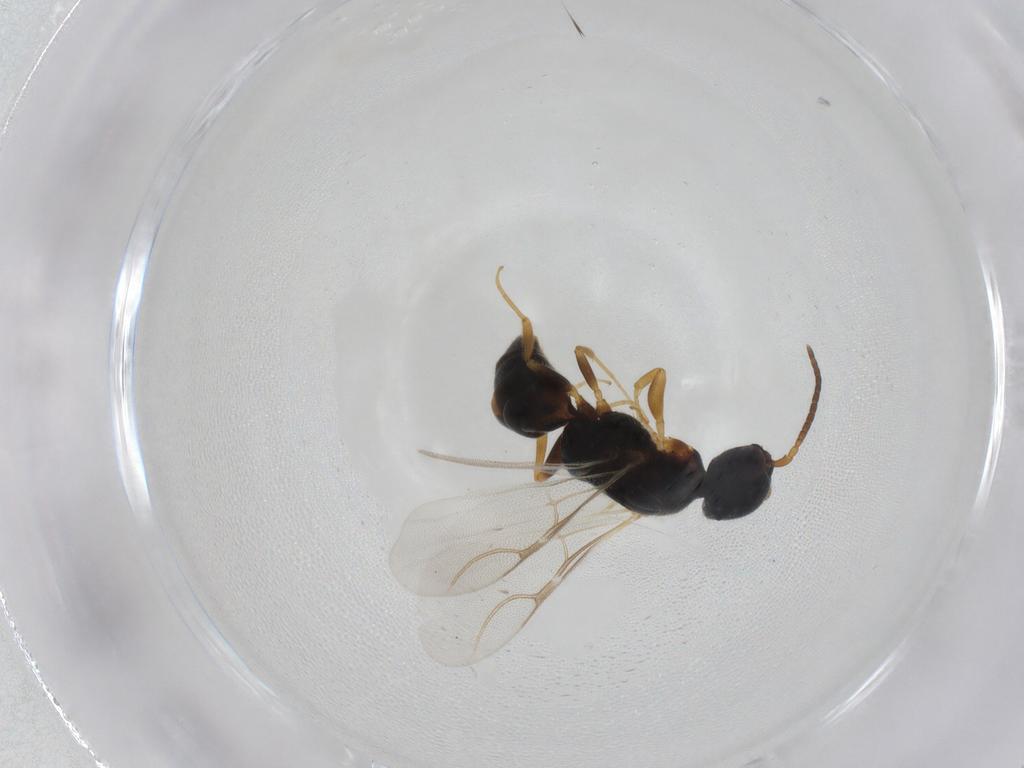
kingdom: Animalia
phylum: Arthropoda
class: Insecta
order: Hymenoptera
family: Bethylidae
